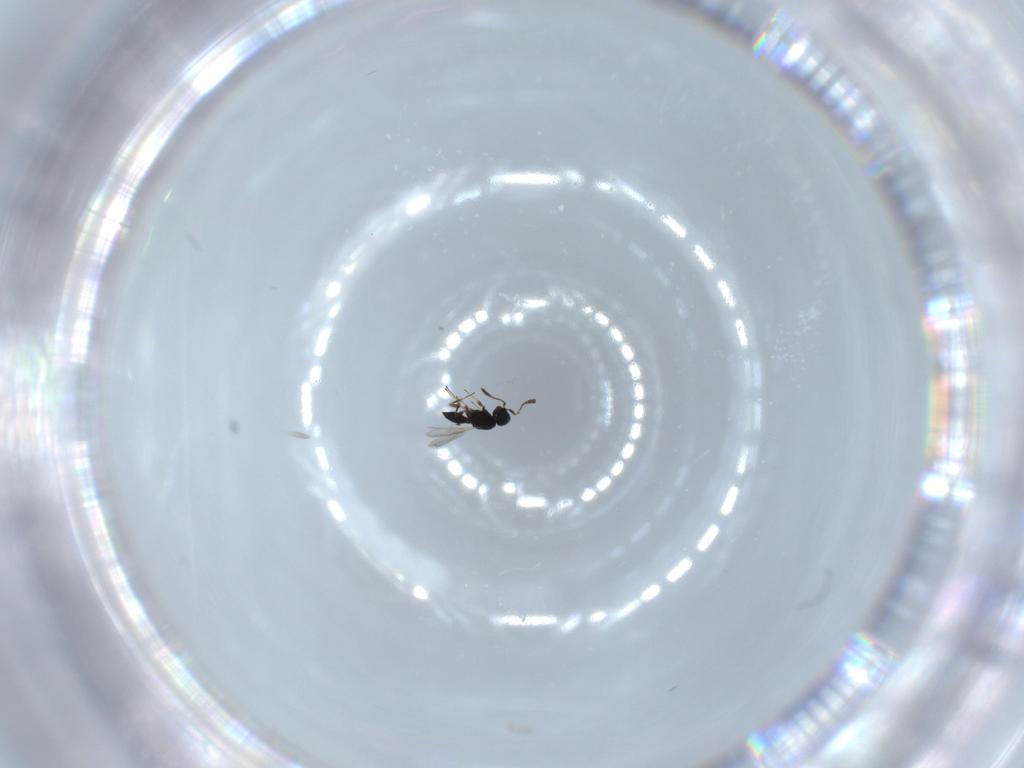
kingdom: Animalia
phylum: Arthropoda
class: Insecta
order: Hymenoptera
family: Scelionidae
